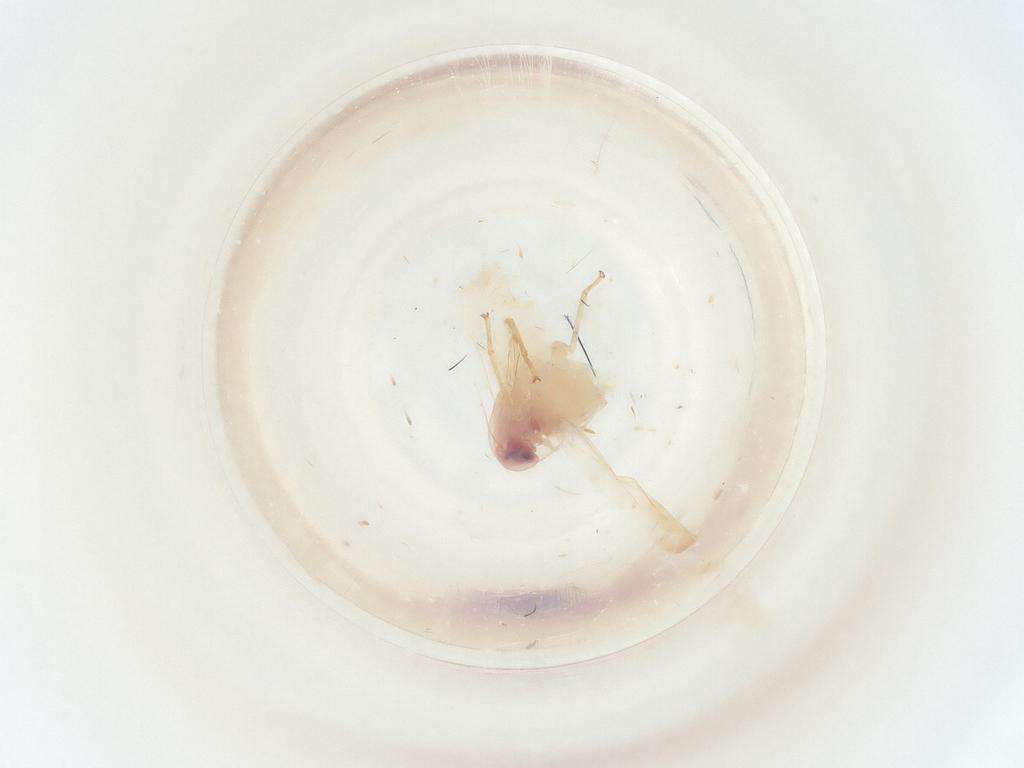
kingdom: Animalia
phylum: Arthropoda
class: Insecta
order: Hemiptera
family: Cicadellidae
